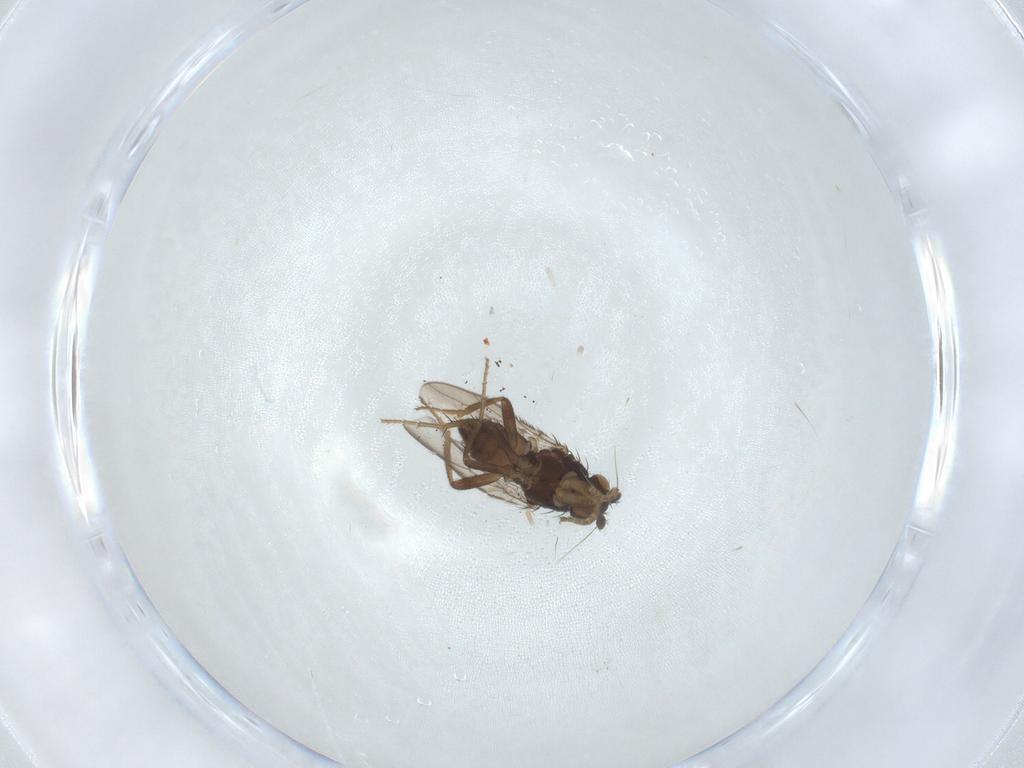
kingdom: Animalia
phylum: Arthropoda
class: Insecta
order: Diptera
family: Sphaeroceridae
